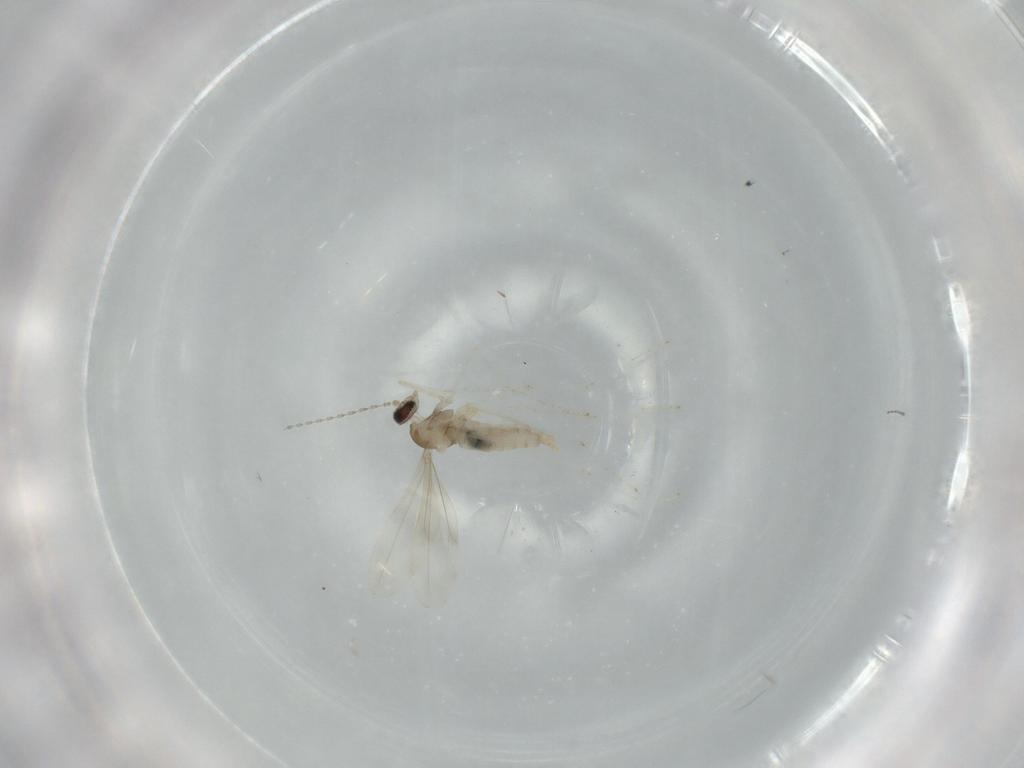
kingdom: Animalia
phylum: Arthropoda
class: Insecta
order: Diptera
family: Cecidomyiidae
